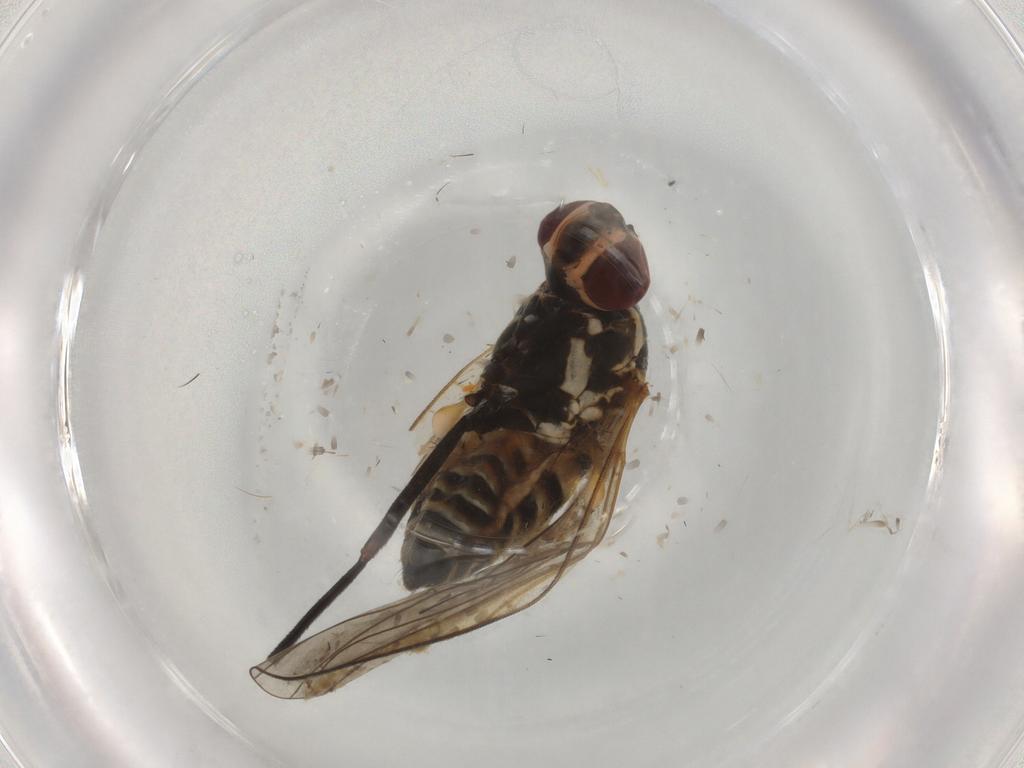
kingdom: Animalia
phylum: Arthropoda
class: Insecta
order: Diptera
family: Bombyliidae
